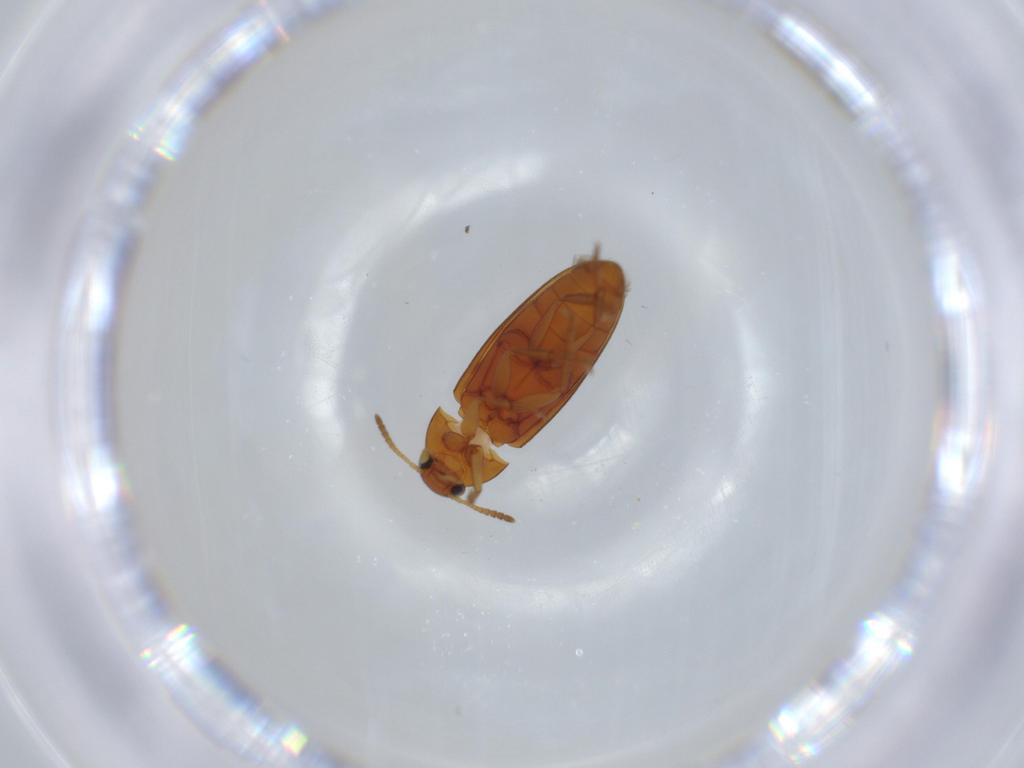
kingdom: Animalia
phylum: Arthropoda
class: Insecta
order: Coleoptera
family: Scraptiidae
